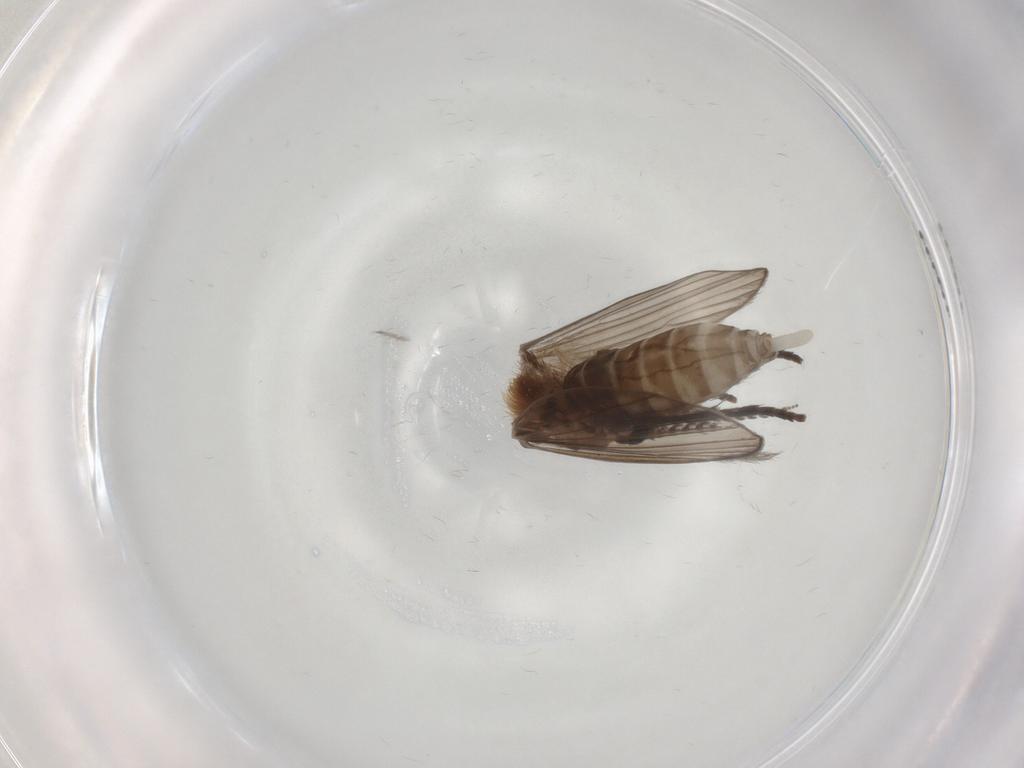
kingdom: Animalia
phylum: Arthropoda
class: Insecta
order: Diptera
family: Psychodidae
